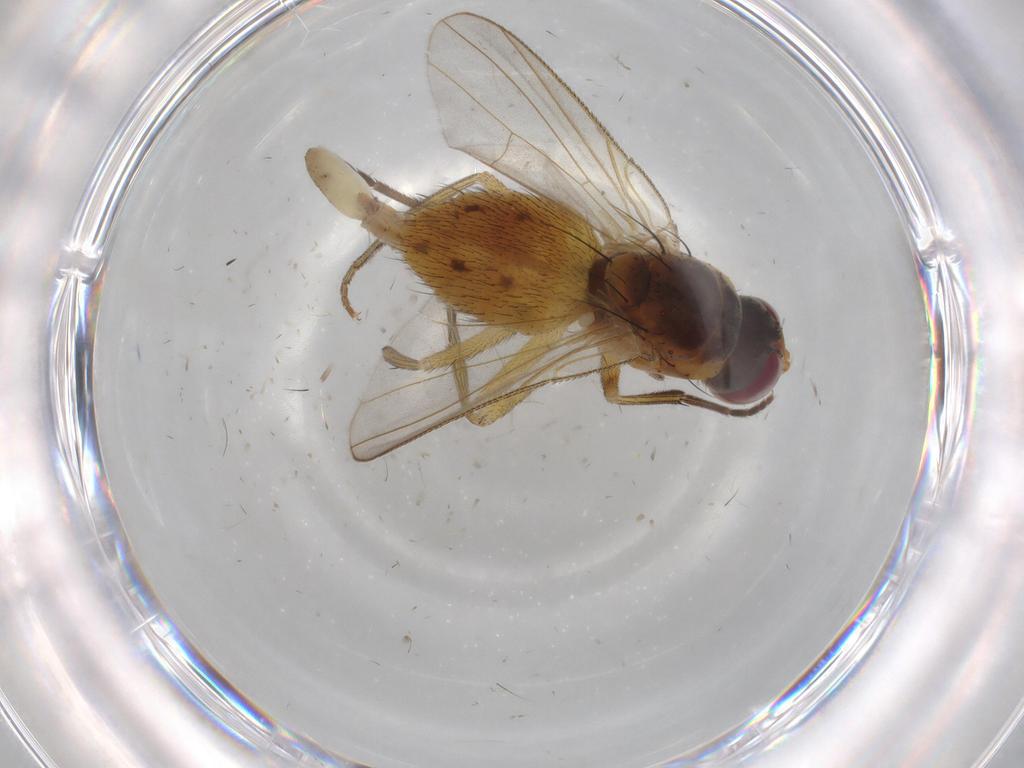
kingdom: Animalia
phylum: Arthropoda
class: Insecta
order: Diptera
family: Muscidae
